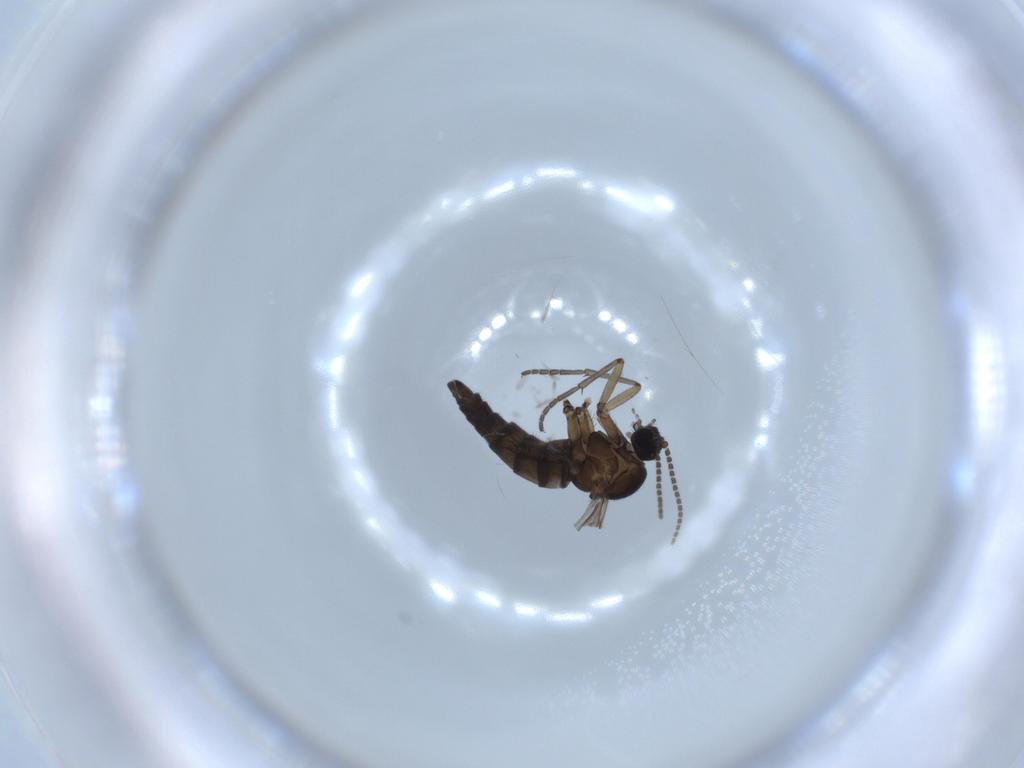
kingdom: Animalia
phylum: Arthropoda
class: Insecta
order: Diptera
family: Sciaridae
